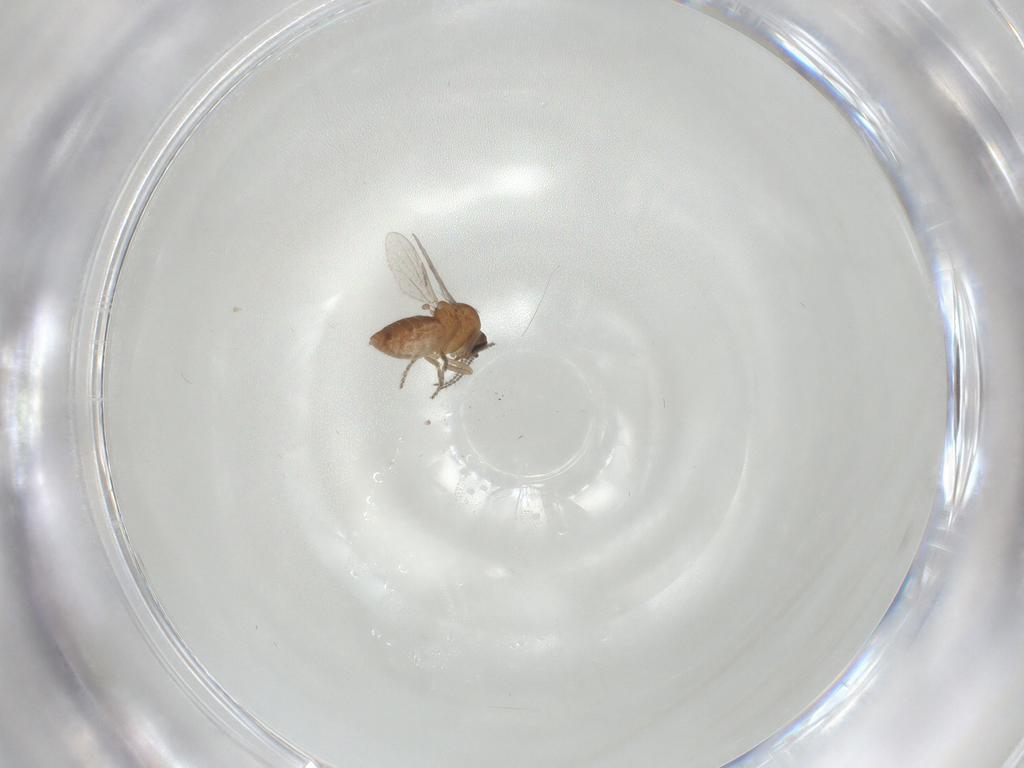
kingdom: Animalia
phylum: Arthropoda
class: Insecta
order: Diptera
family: Ceratopogonidae
